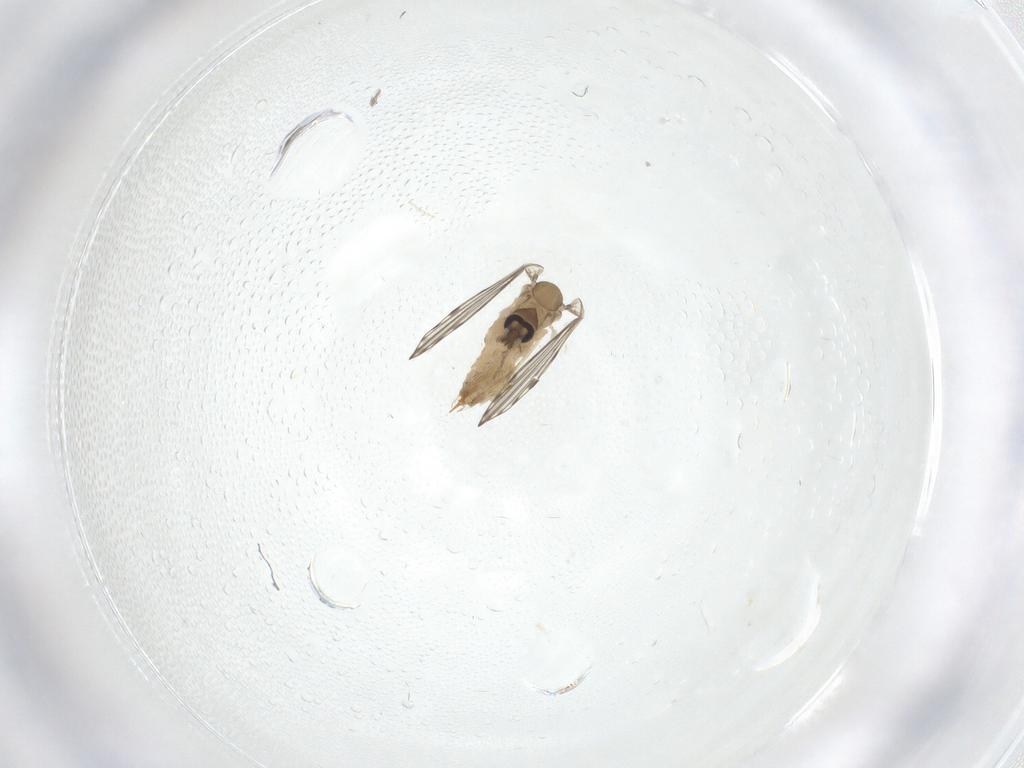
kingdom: Animalia
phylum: Arthropoda
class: Insecta
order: Diptera
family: Psychodidae
